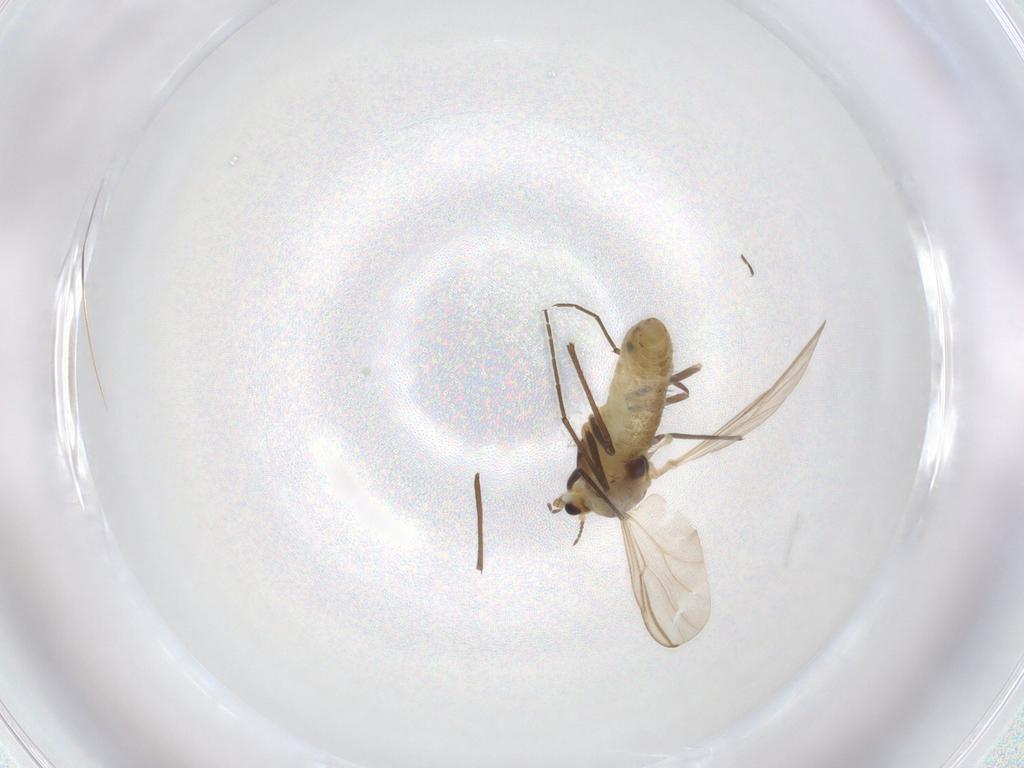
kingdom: Animalia
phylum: Arthropoda
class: Insecta
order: Diptera
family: Chironomidae
